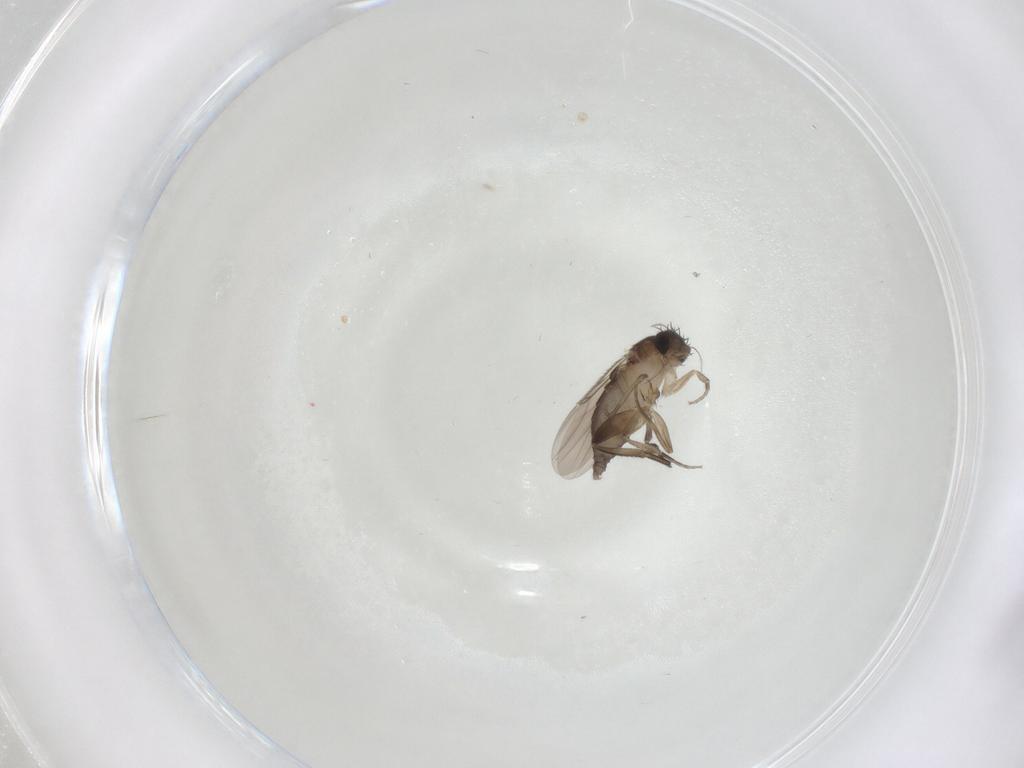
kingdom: Animalia
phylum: Arthropoda
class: Insecta
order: Diptera
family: Phoridae
